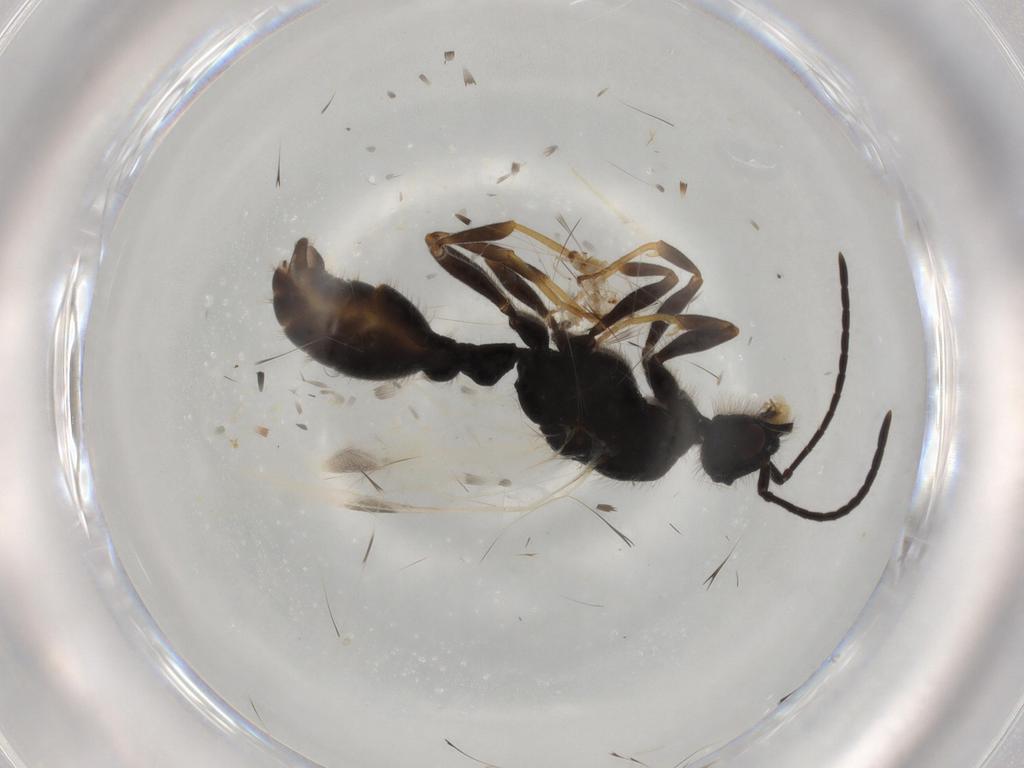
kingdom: Animalia
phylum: Arthropoda
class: Insecta
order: Hymenoptera
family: Formicidae
